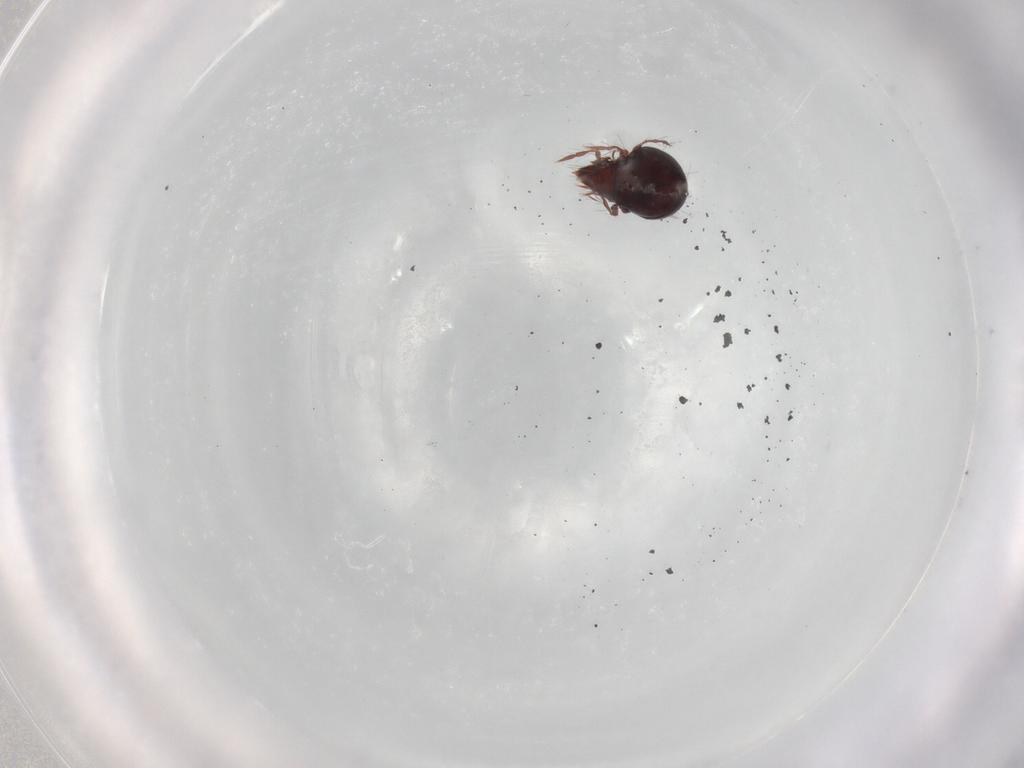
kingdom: Animalia
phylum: Arthropoda
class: Arachnida
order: Sarcoptiformes
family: Ceratoppiidae
